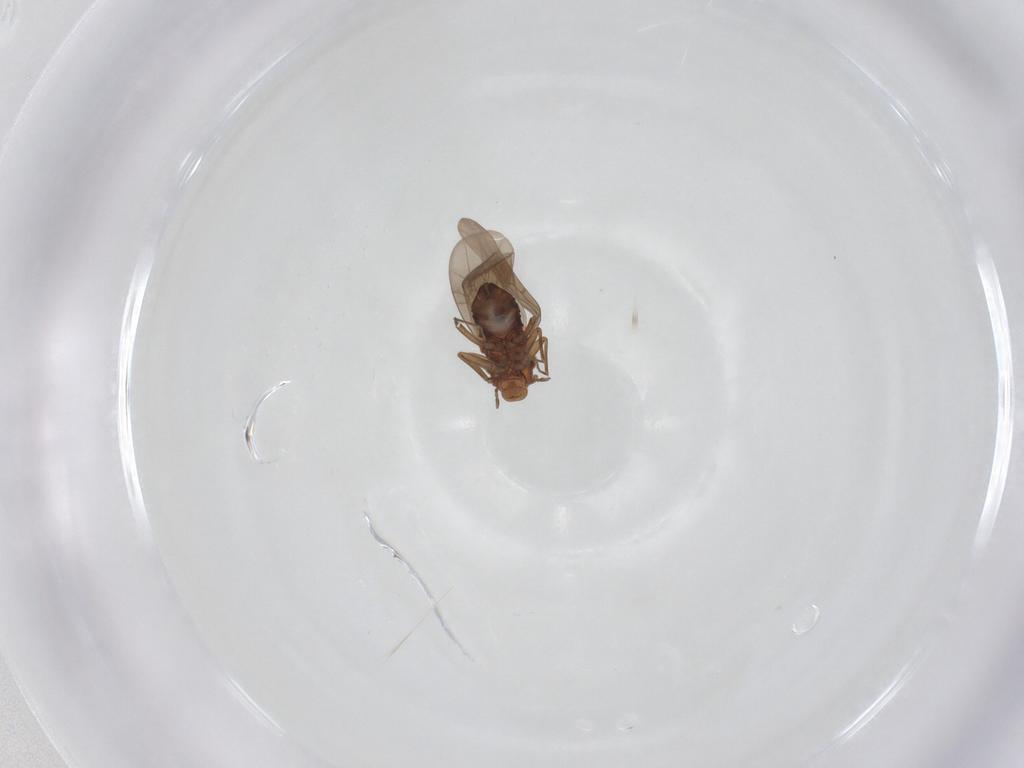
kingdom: Animalia
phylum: Arthropoda
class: Insecta
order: Psocodea
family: Lepidopsocidae
